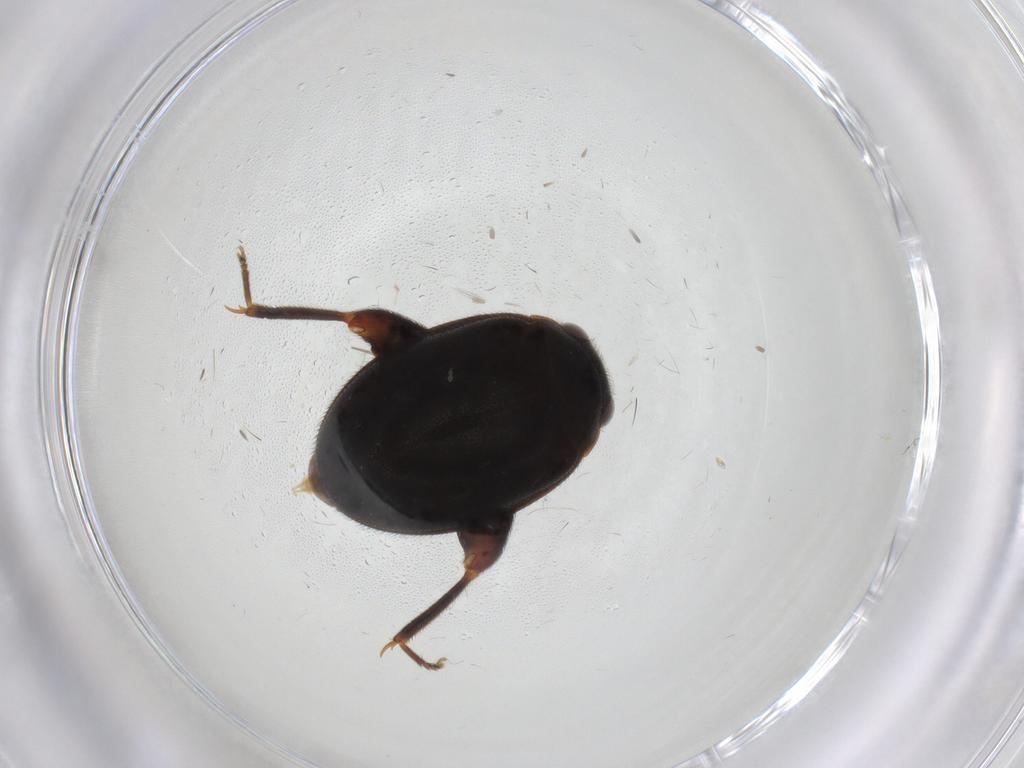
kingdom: Animalia
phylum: Arthropoda
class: Insecta
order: Coleoptera
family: Scirtidae
